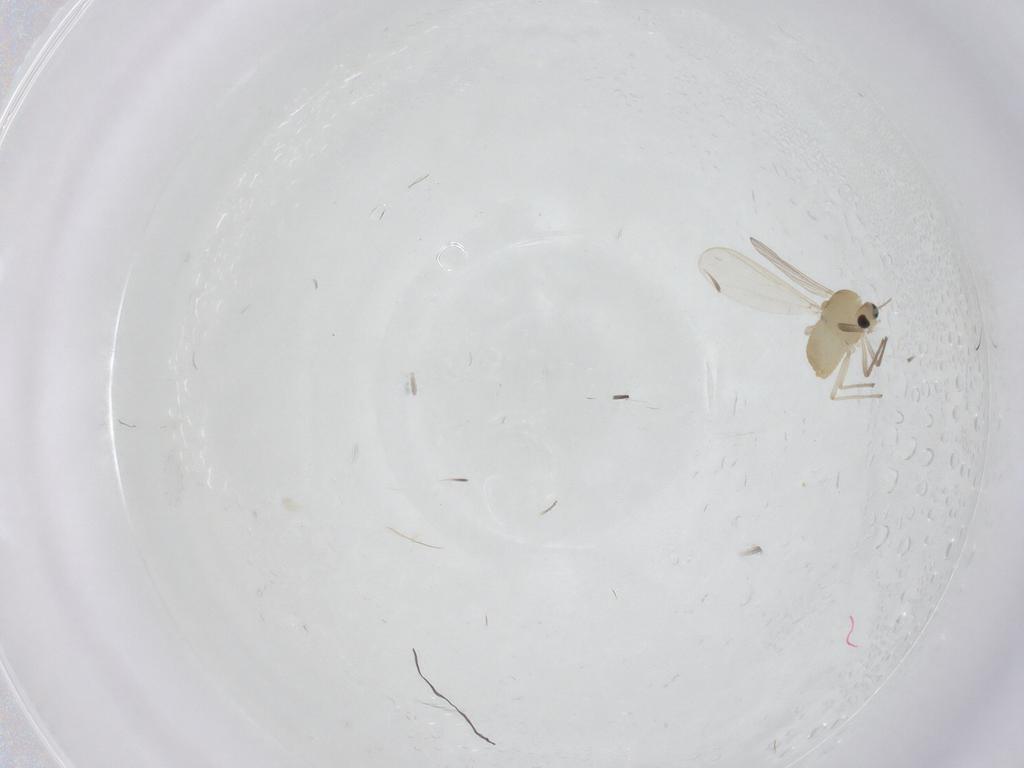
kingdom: Animalia
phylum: Arthropoda
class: Insecta
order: Diptera
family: Chironomidae
